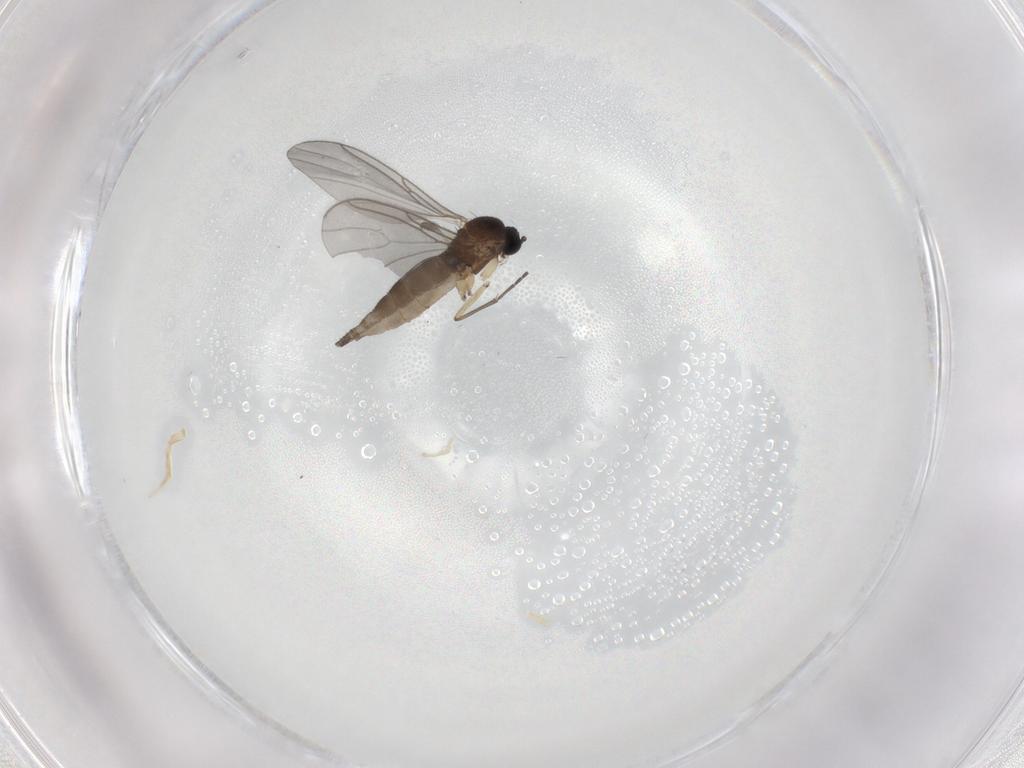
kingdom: Animalia
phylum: Arthropoda
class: Insecta
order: Diptera
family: Sciaridae
